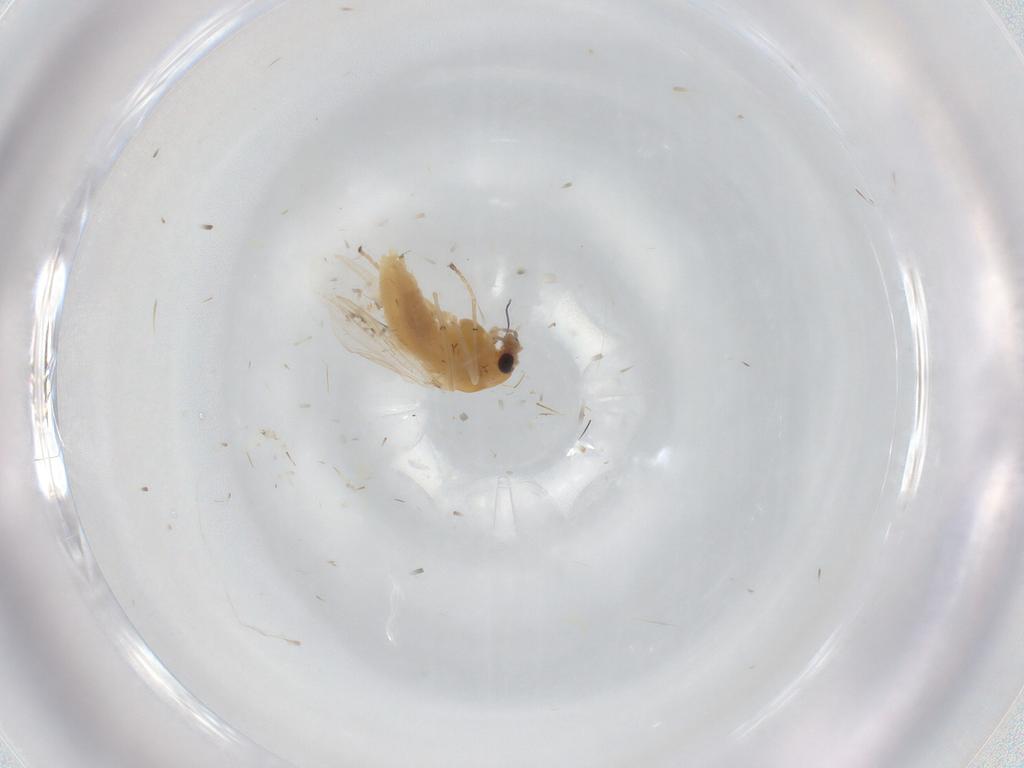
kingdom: Animalia
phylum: Arthropoda
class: Insecta
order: Diptera
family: Chironomidae
